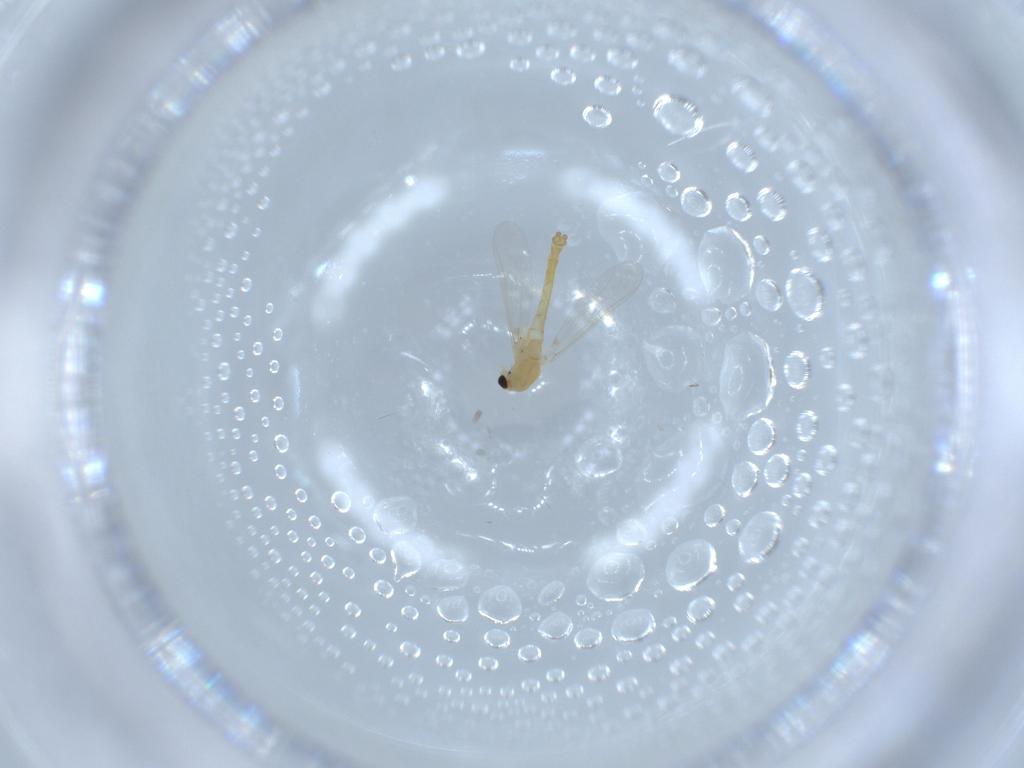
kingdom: Animalia
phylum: Arthropoda
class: Insecta
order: Diptera
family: Chironomidae
